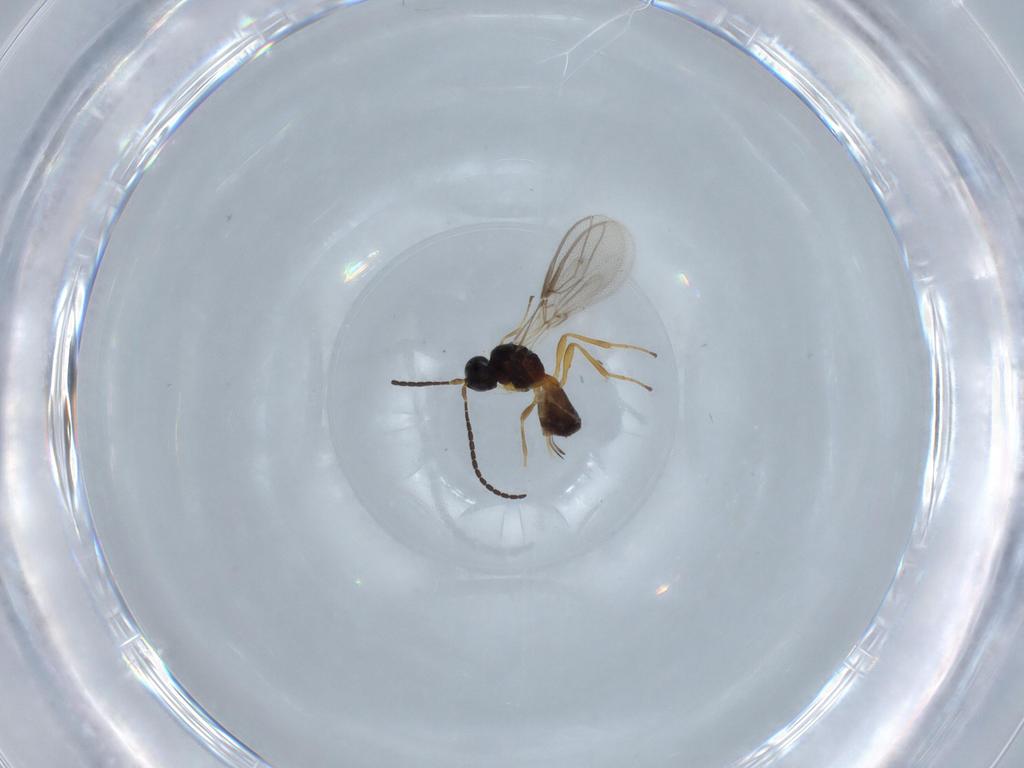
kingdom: Animalia
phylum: Arthropoda
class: Insecta
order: Hymenoptera
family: Braconidae
